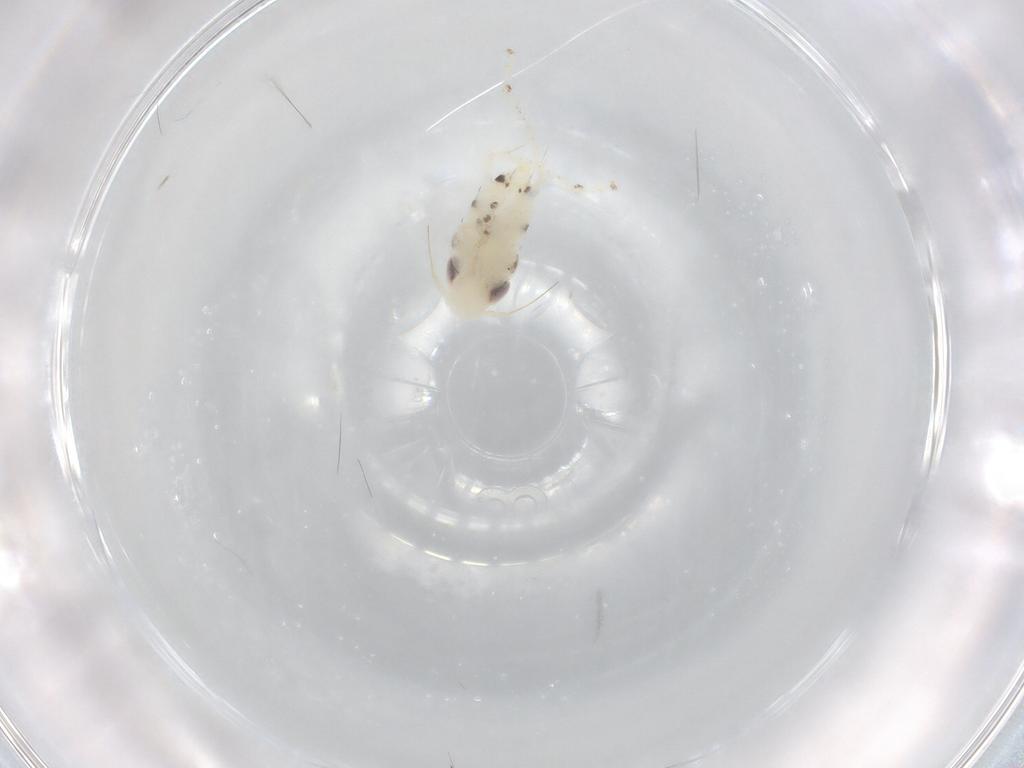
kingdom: Animalia
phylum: Arthropoda
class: Insecta
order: Hemiptera
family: Cicadellidae
